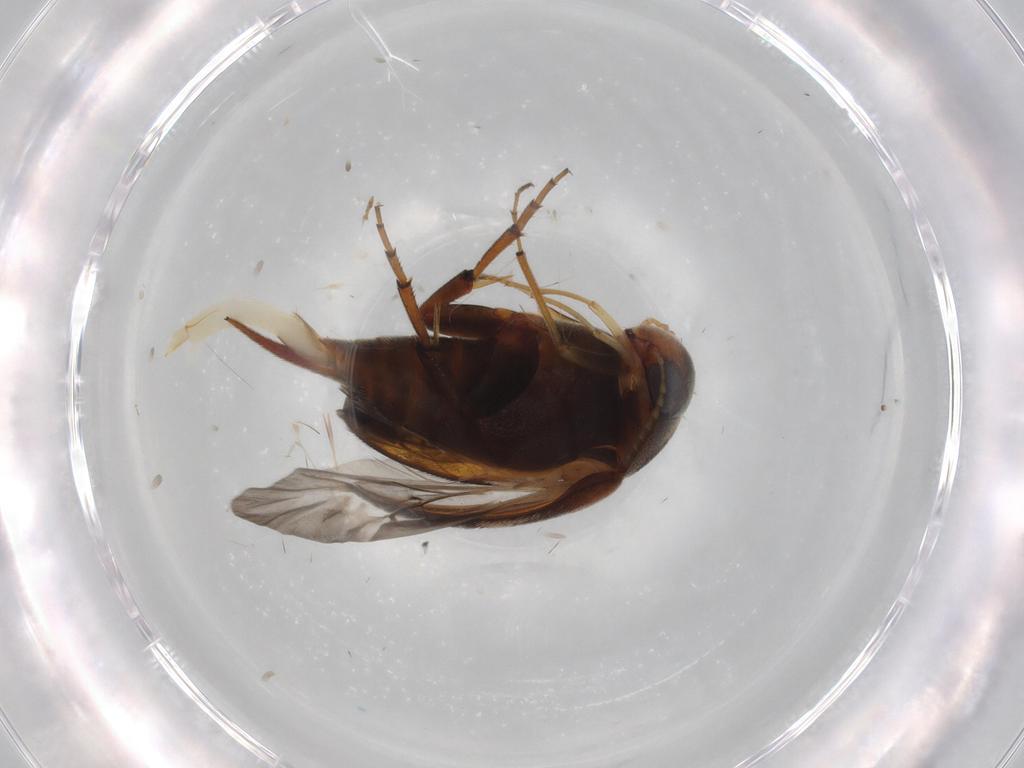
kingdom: Animalia
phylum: Arthropoda
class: Insecta
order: Coleoptera
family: Mordellidae
